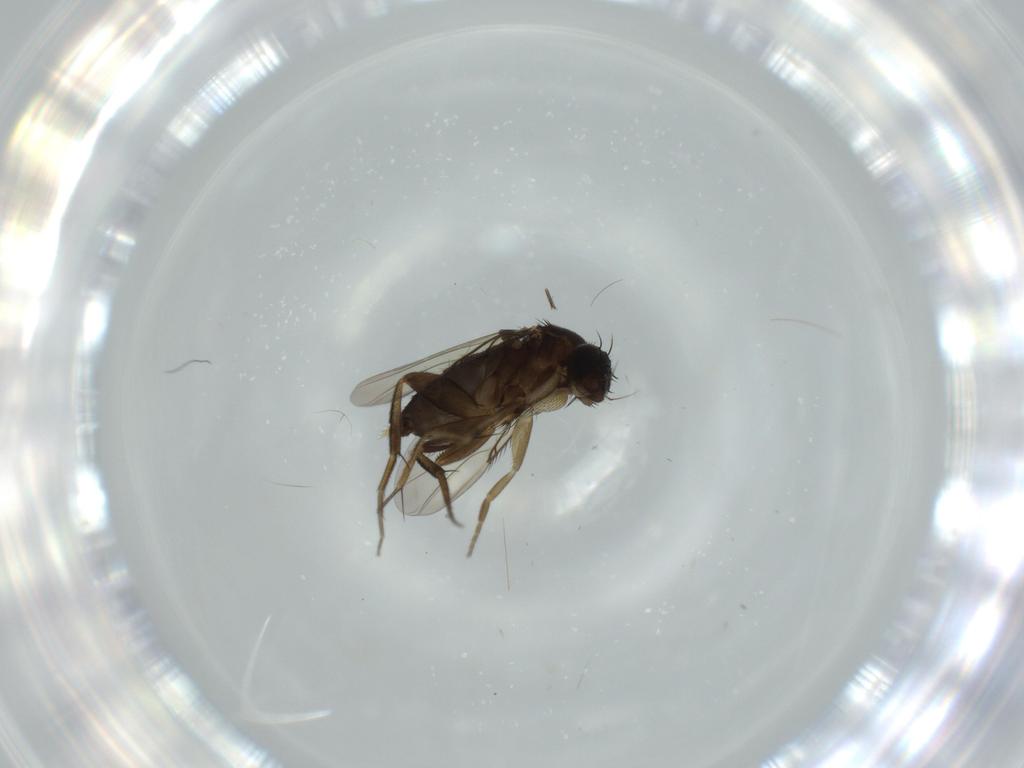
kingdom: Animalia
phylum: Arthropoda
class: Insecta
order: Diptera
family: Phoridae
